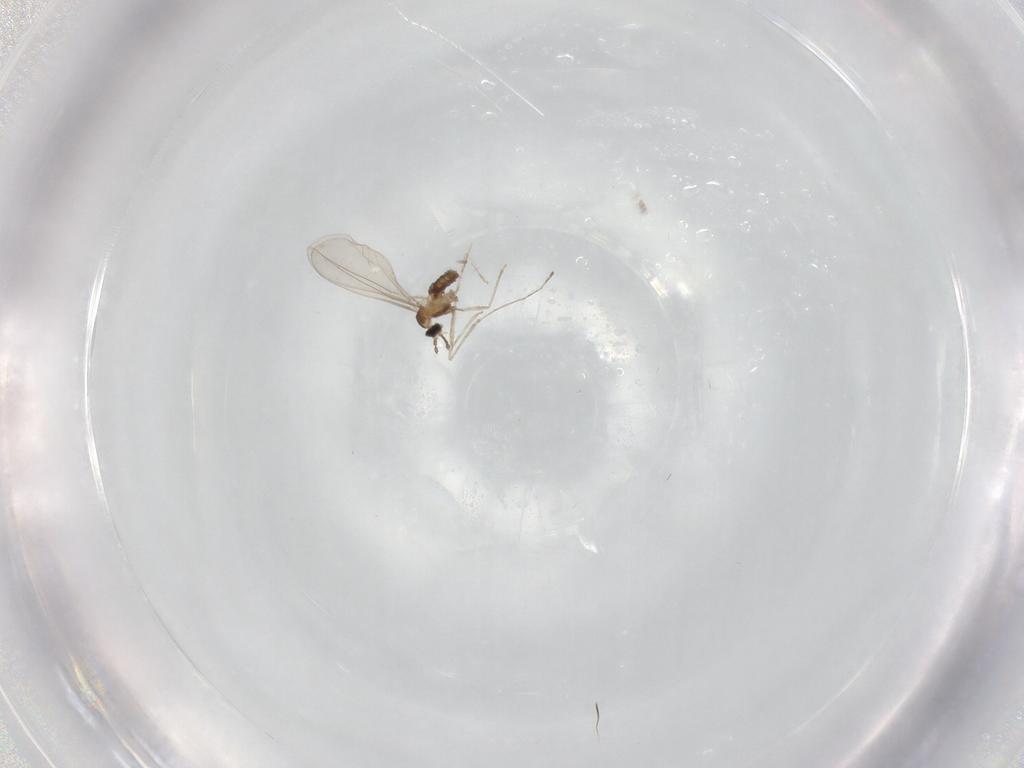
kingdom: Animalia
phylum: Arthropoda
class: Insecta
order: Diptera
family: Cecidomyiidae
